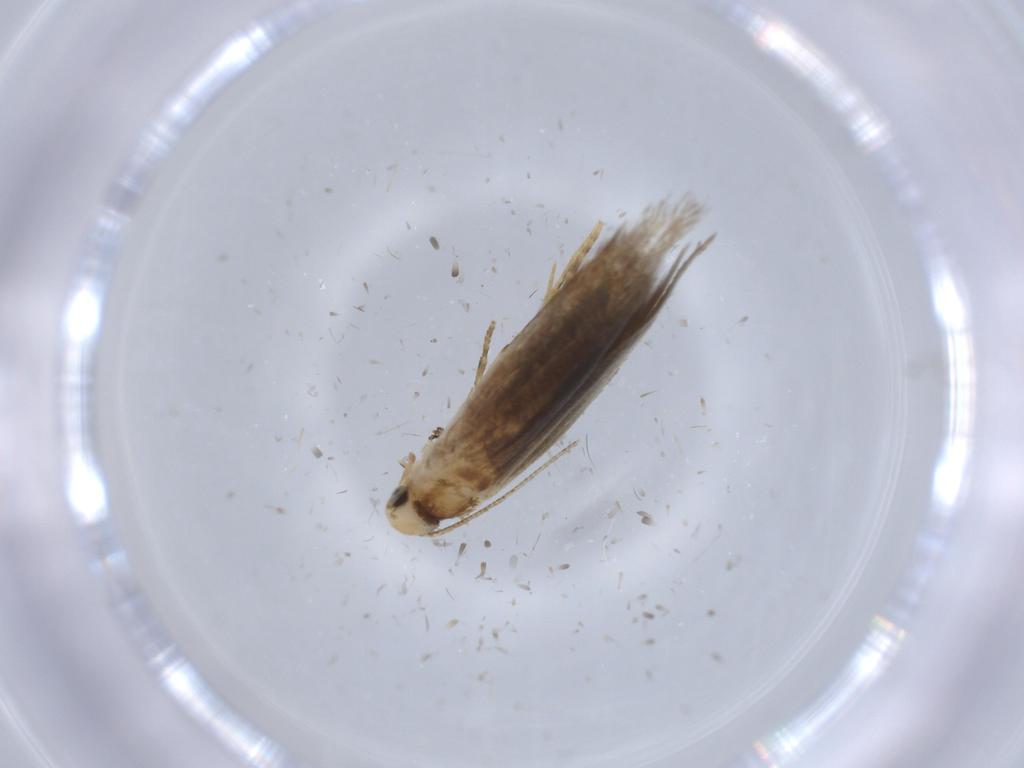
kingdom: Animalia
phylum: Arthropoda
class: Insecta
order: Lepidoptera
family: Tineidae
